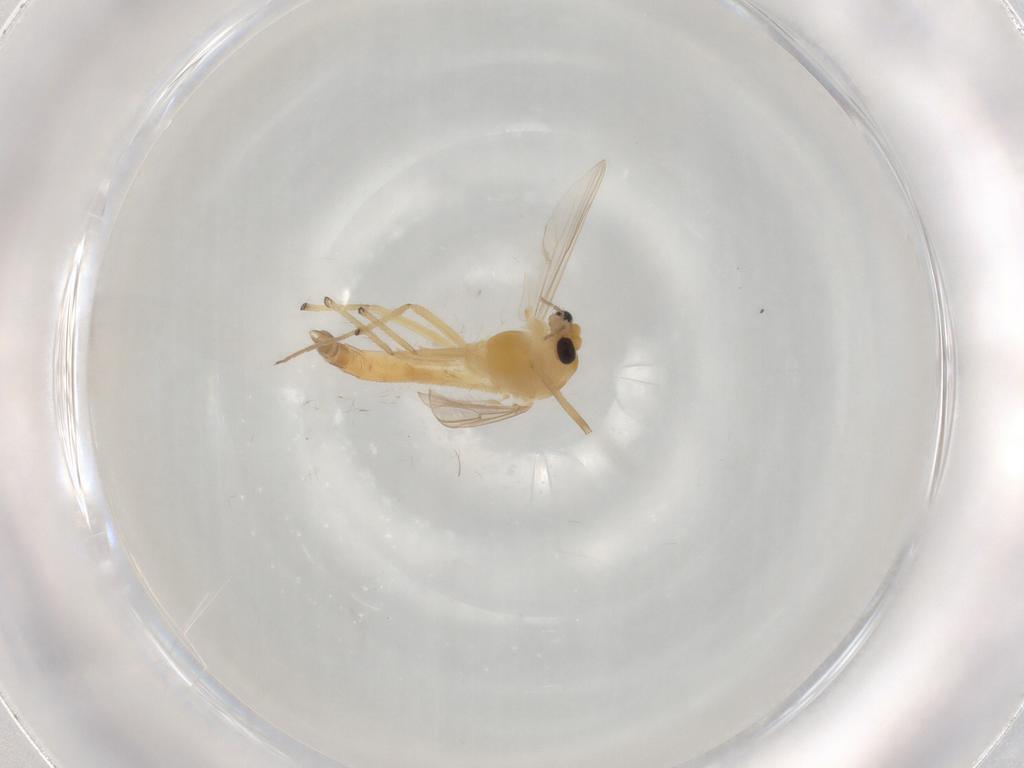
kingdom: Animalia
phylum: Arthropoda
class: Insecta
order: Diptera
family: Chironomidae
